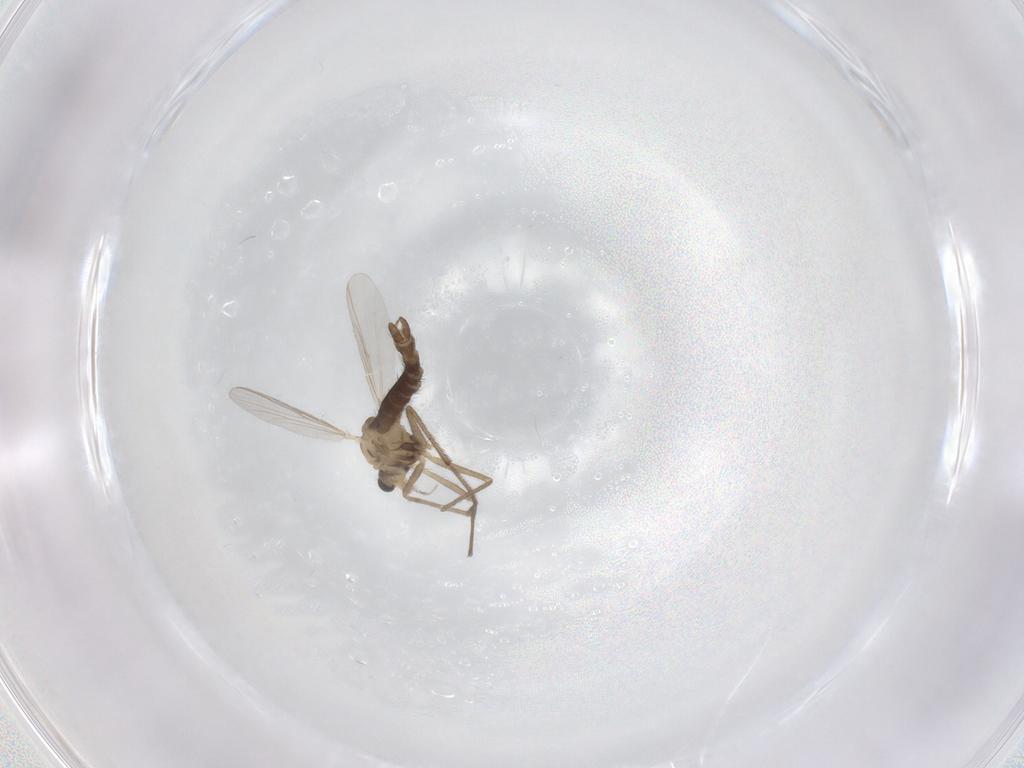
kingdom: Animalia
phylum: Arthropoda
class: Insecta
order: Diptera
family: Chironomidae
